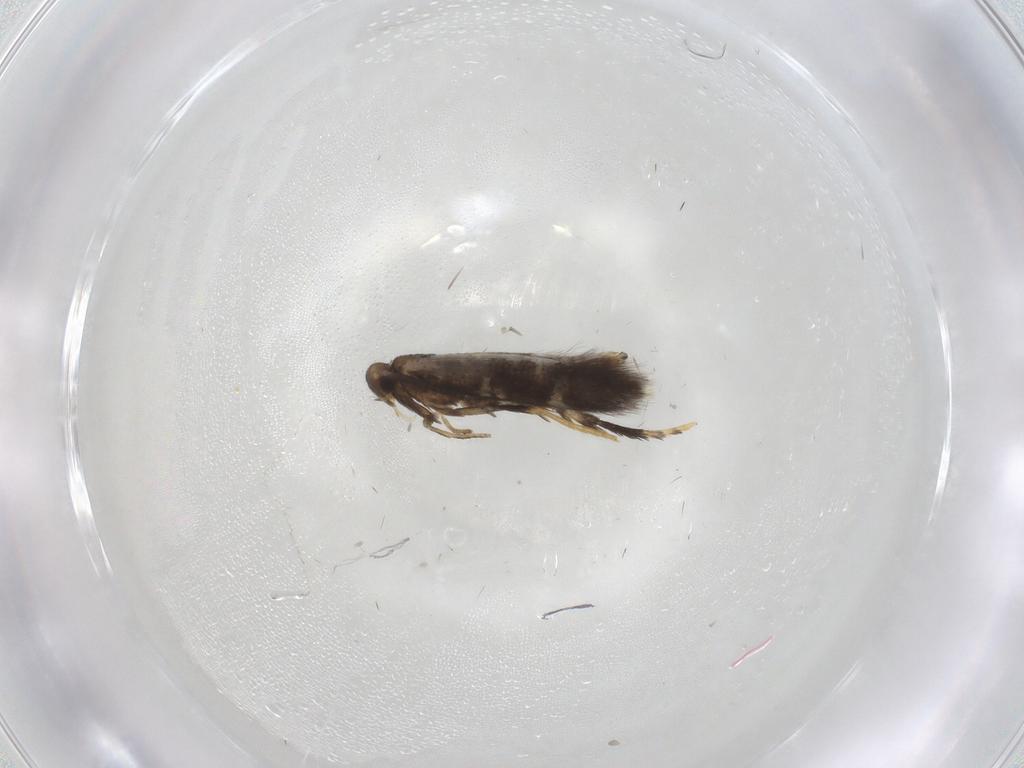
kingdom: Animalia
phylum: Arthropoda
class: Insecta
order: Lepidoptera
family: Heliozelidae
